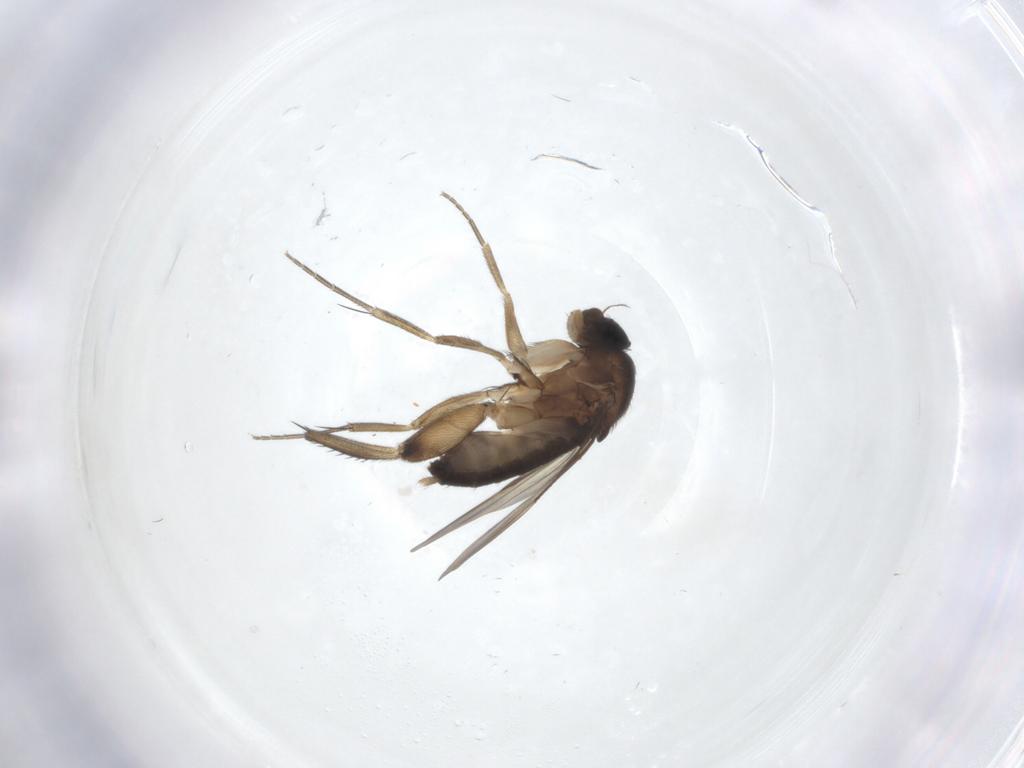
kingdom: Animalia
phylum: Arthropoda
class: Insecta
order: Diptera
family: Phoridae
